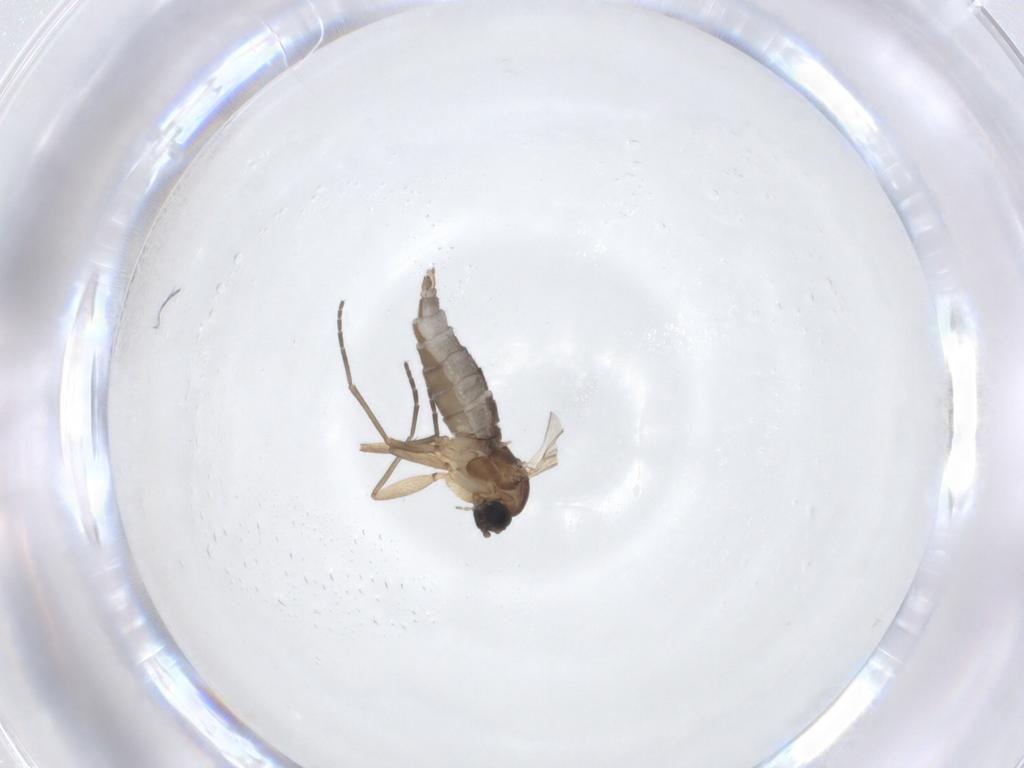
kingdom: Animalia
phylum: Arthropoda
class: Insecta
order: Diptera
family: Sciaridae
